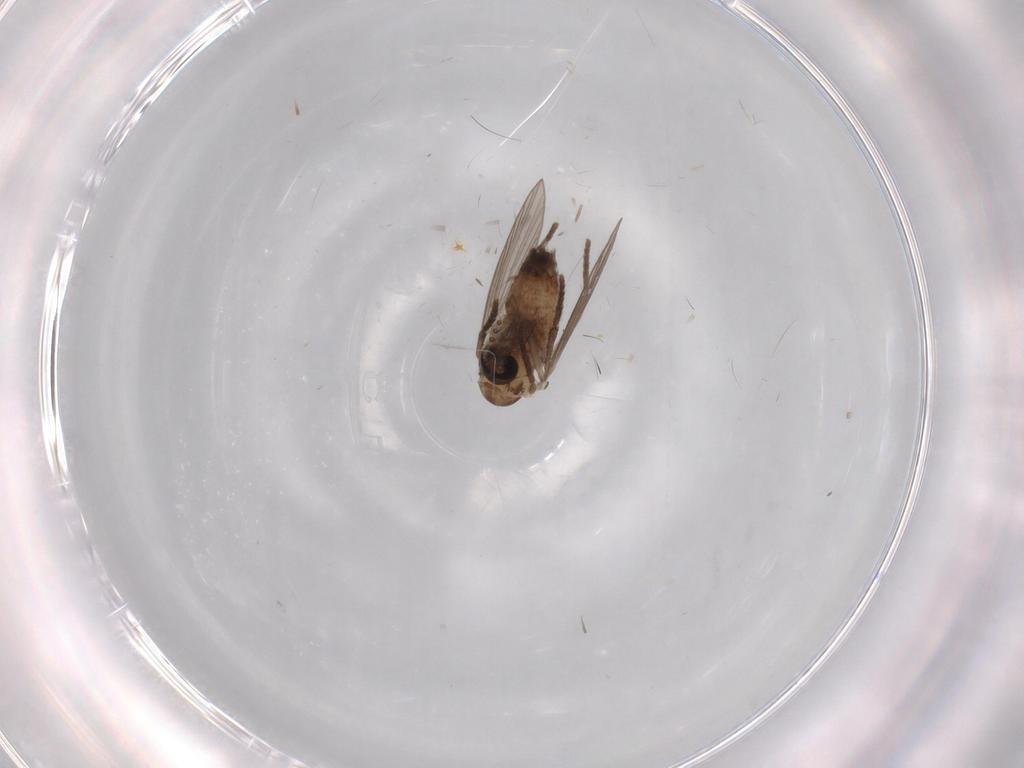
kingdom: Animalia
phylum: Arthropoda
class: Insecta
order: Diptera
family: Psychodidae
